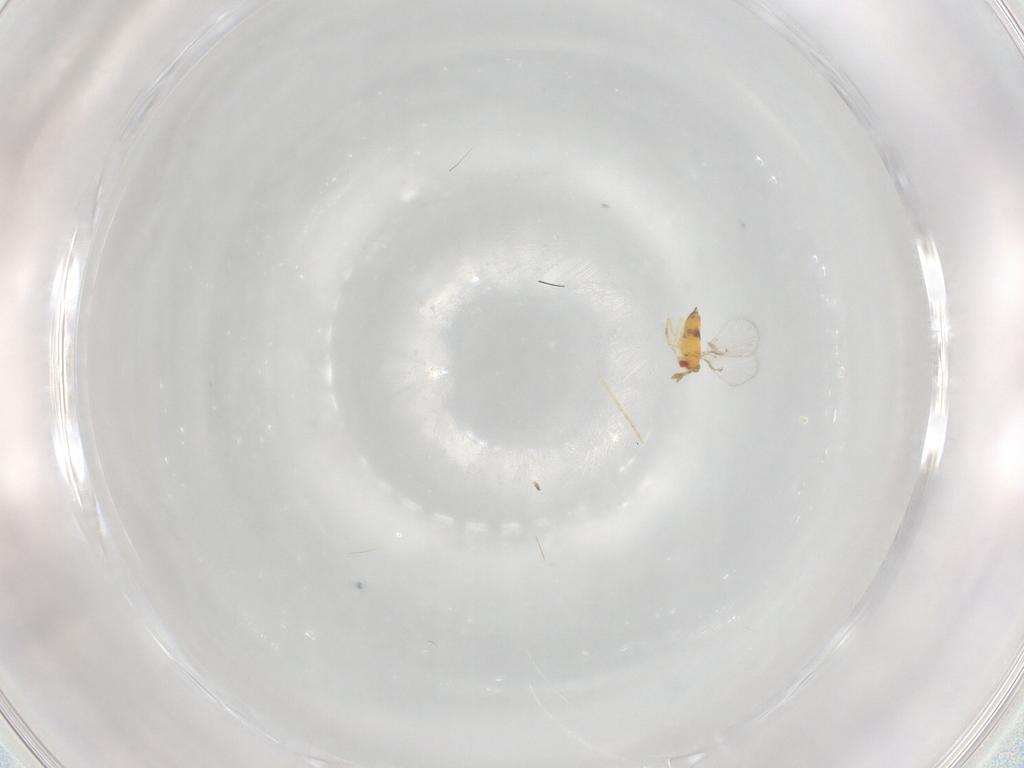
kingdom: Animalia
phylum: Arthropoda
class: Insecta
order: Hymenoptera
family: Trichogrammatidae
